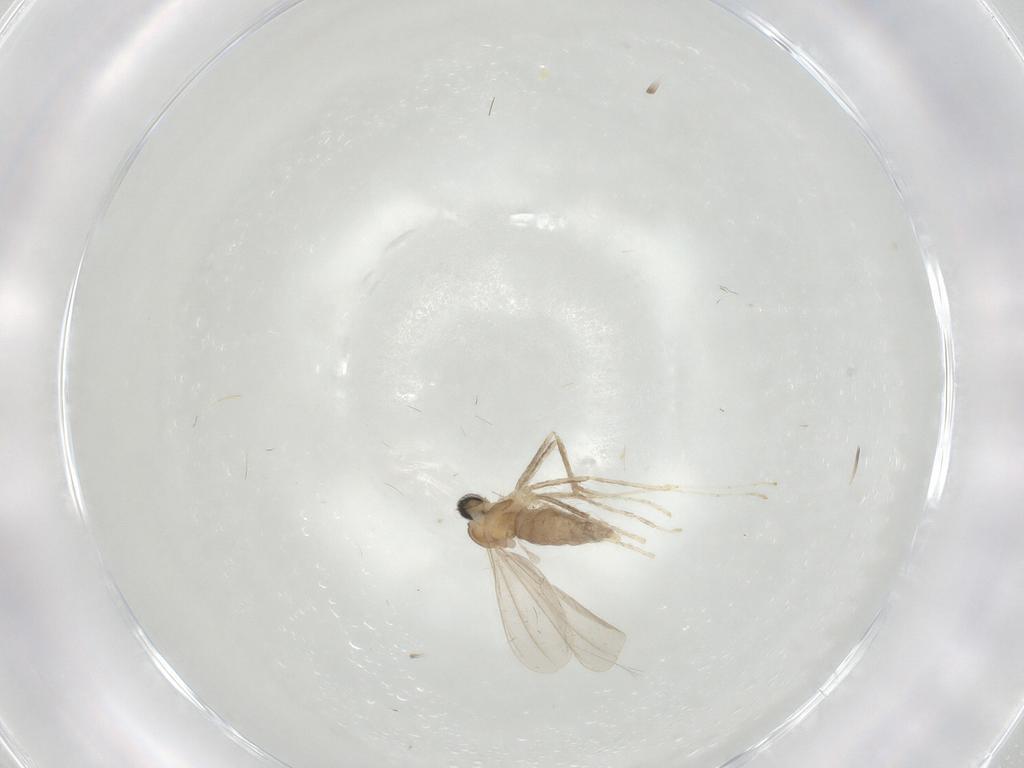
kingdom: Animalia
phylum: Arthropoda
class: Insecta
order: Diptera
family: Cecidomyiidae
